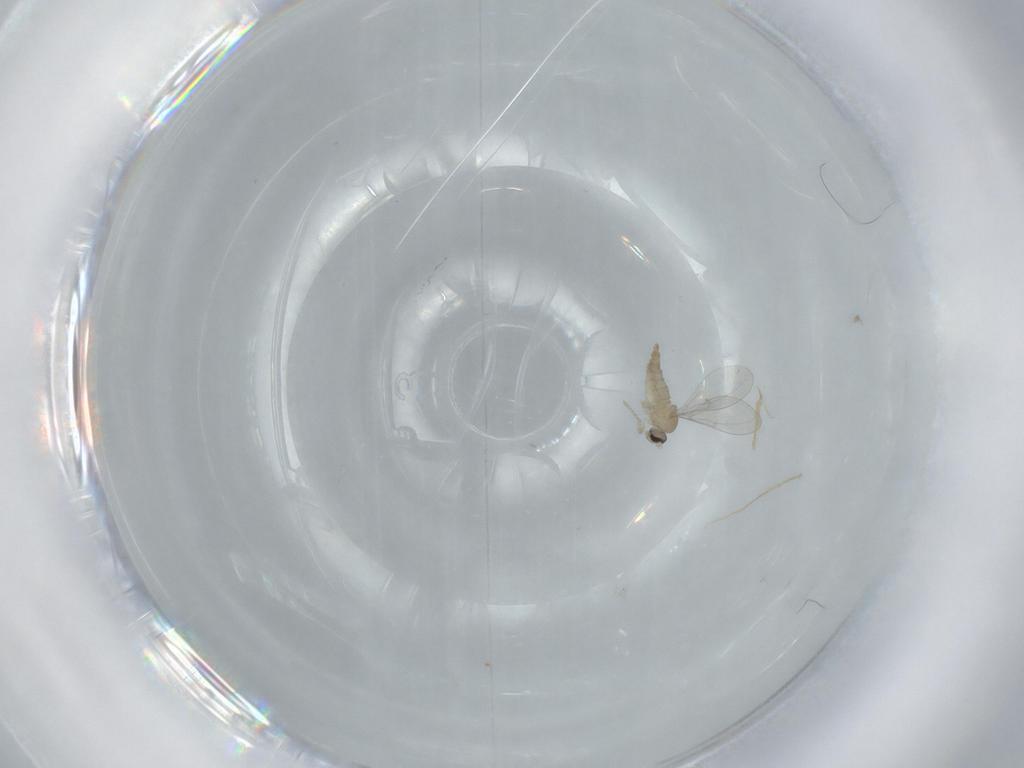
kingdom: Animalia
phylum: Arthropoda
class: Insecta
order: Diptera
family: Cecidomyiidae
